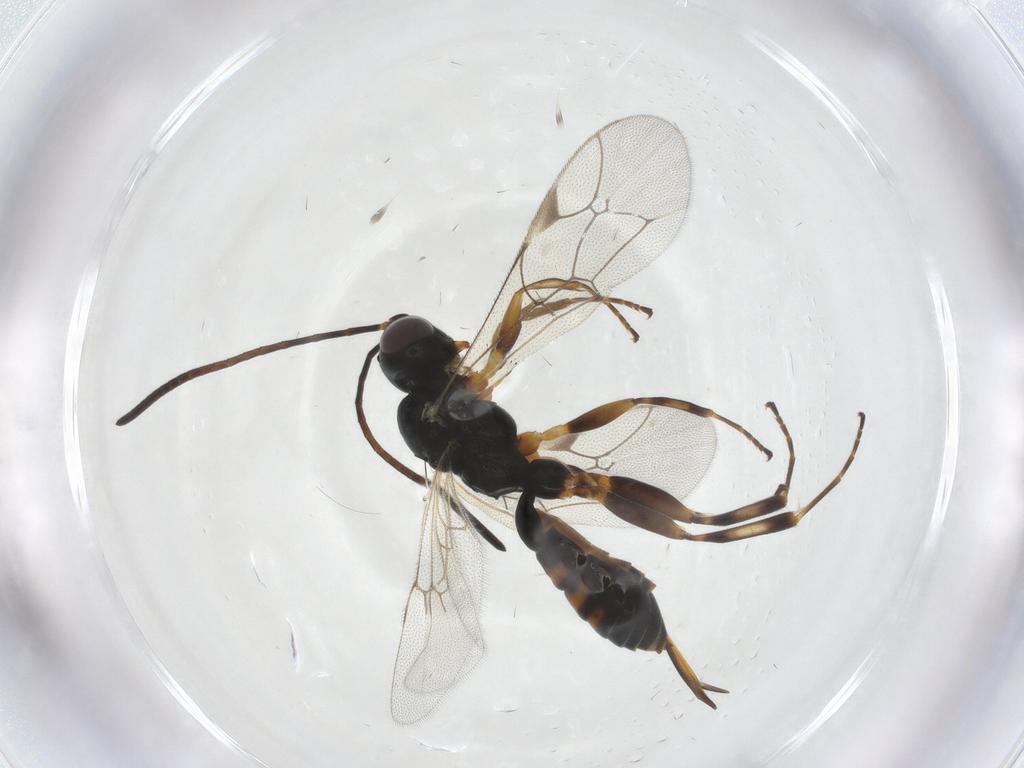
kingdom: Animalia
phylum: Arthropoda
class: Insecta
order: Hymenoptera
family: Ichneumonidae
